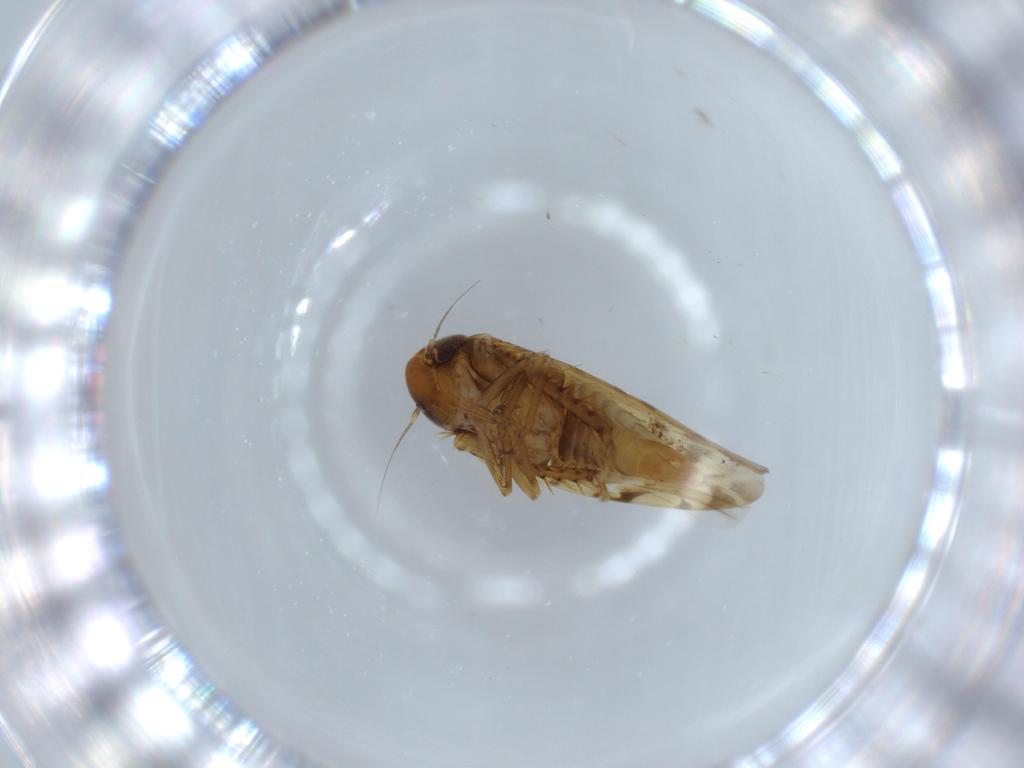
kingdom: Animalia
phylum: Arthropoda
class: Insecta
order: Hemiptera
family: Cicadellidae
